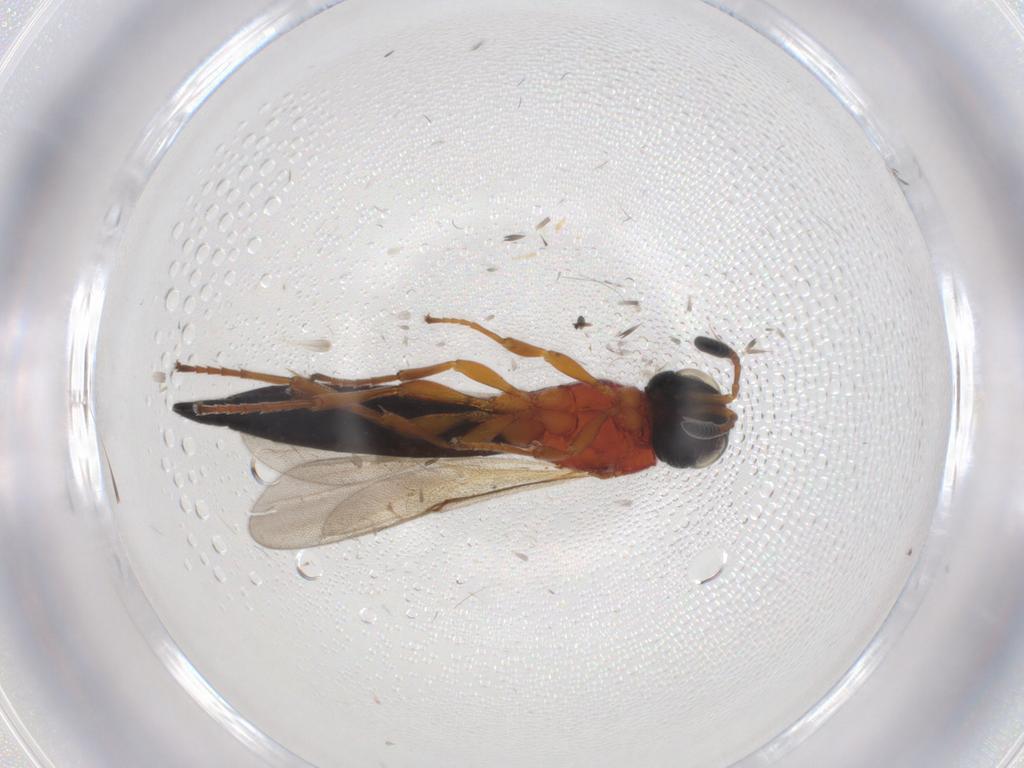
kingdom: Animalia
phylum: Arthropoda
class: Insecta
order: Hymenoptera
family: Scelionidae
